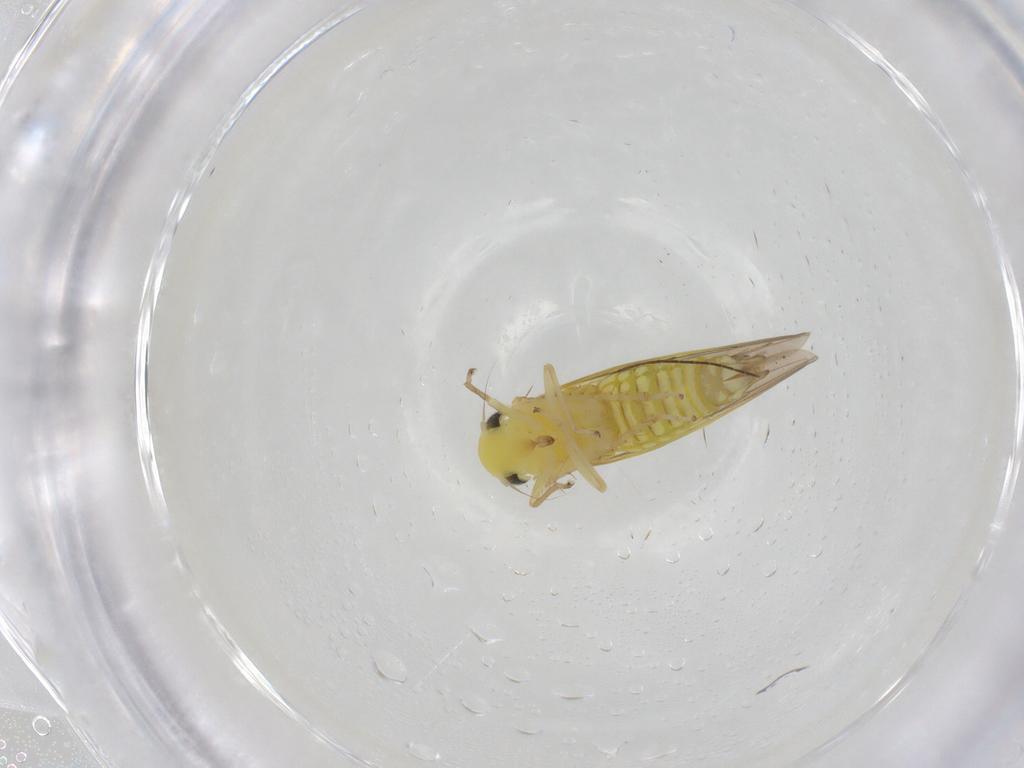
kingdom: Animalia
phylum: Arthropoda
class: Insecta
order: Hemiptera
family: Cicadellidae
